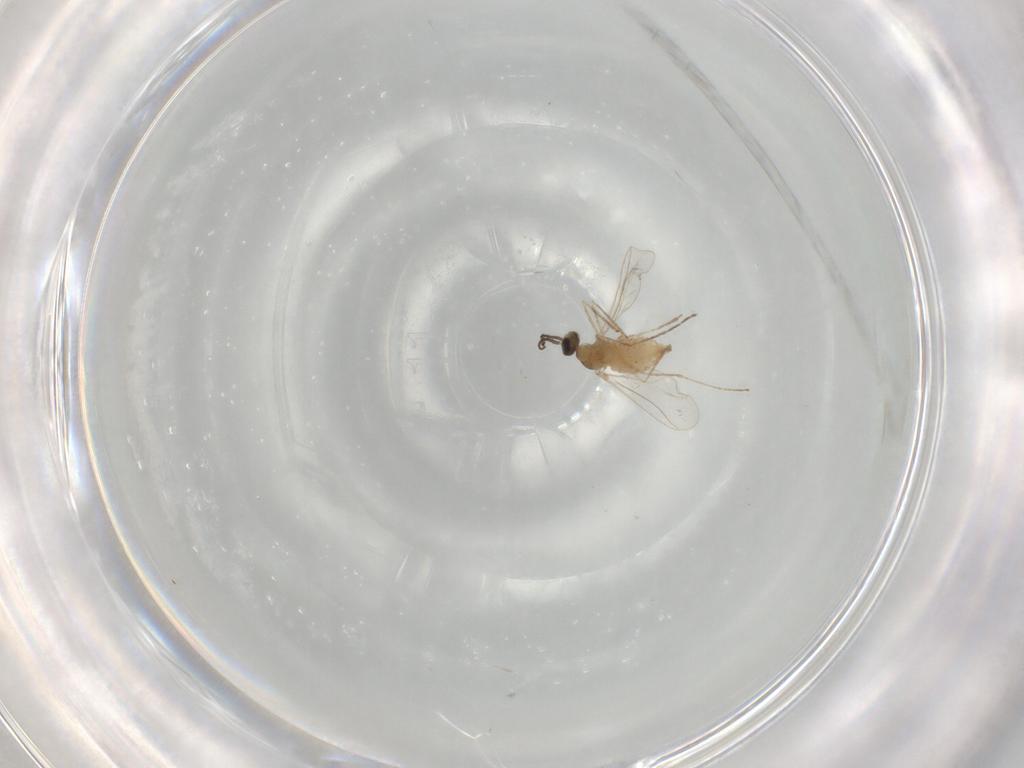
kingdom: Animalia
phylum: Arthropoda
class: Insecta
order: Diptera
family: Cecidomyiidae
